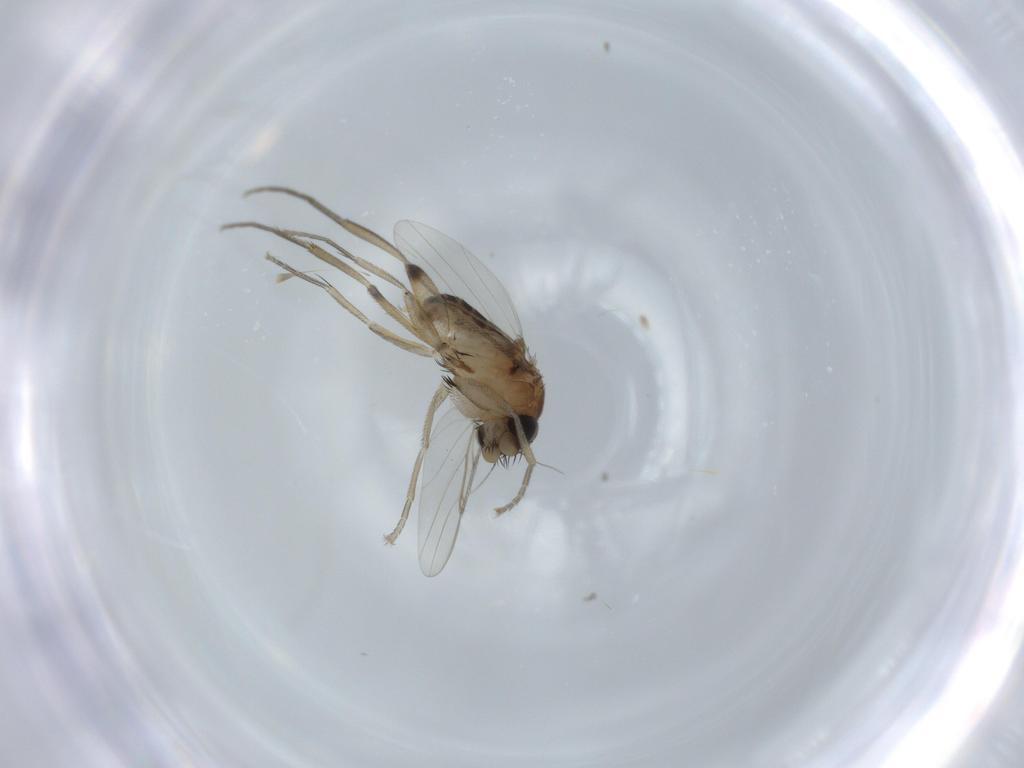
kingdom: Animalia
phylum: Arthropoda
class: Insecta
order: Diptera
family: Phoridae
